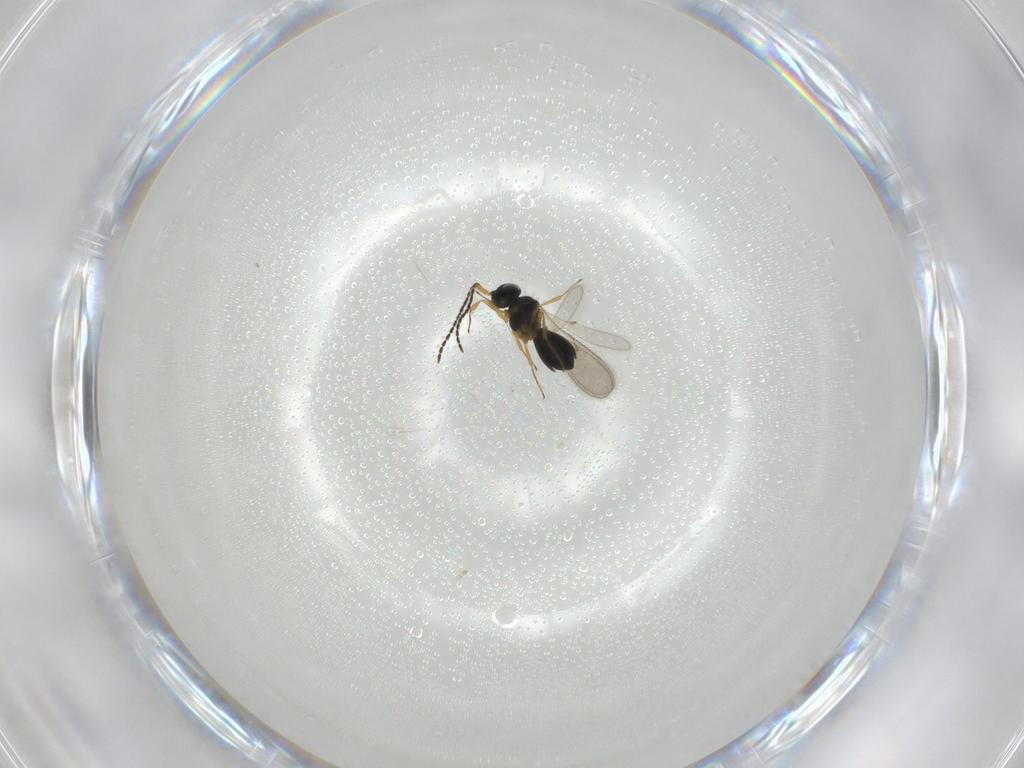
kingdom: Animalia
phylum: Arthropoda
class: Insecta
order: Hymenoptera
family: Scelionidae
